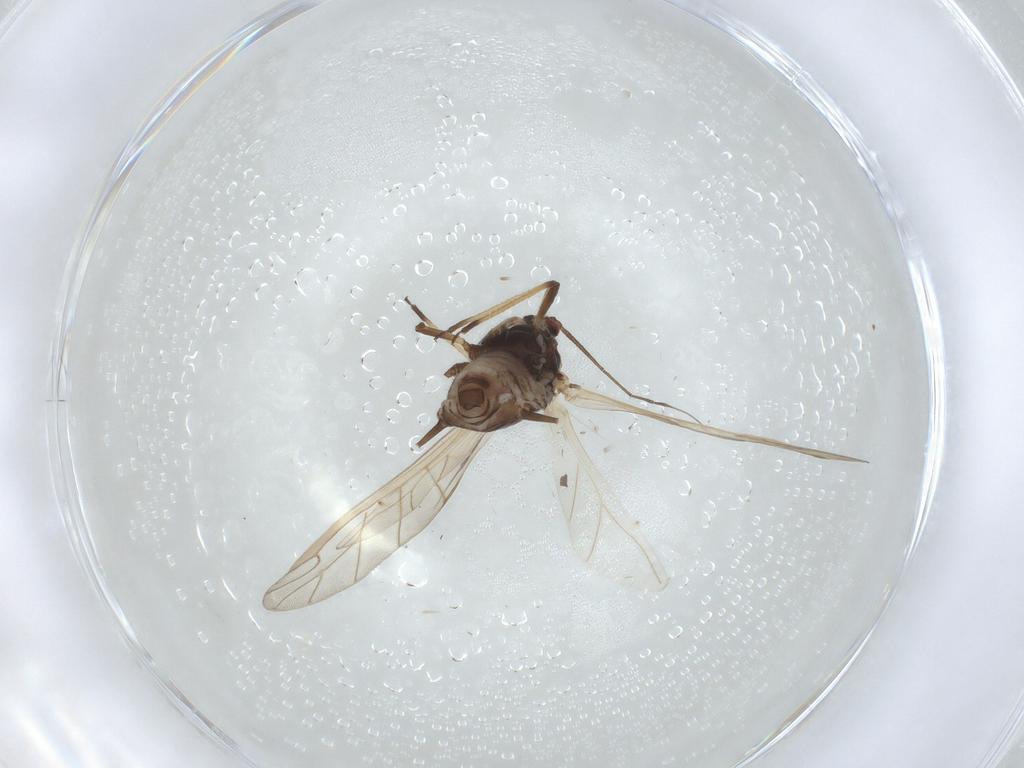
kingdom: Animalia
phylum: Arthropoda
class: Insecta
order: Hemiptera
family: Aphididae
